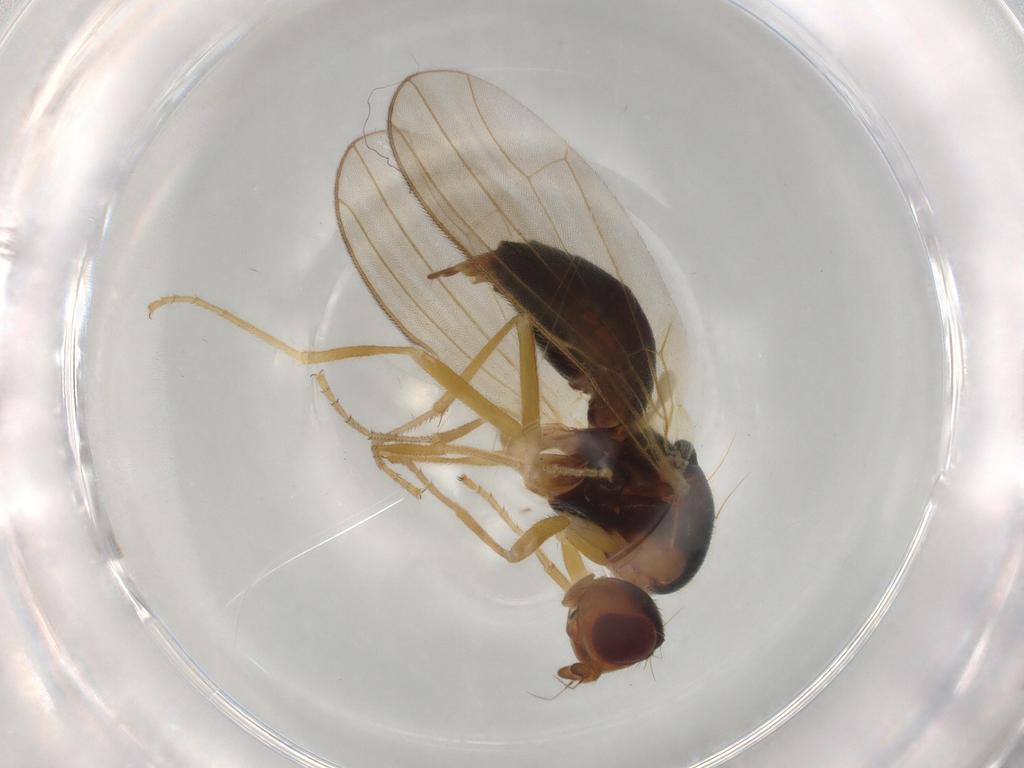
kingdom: Animalia
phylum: Arthropoda
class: Insecta
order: Diptera
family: Psilidae
